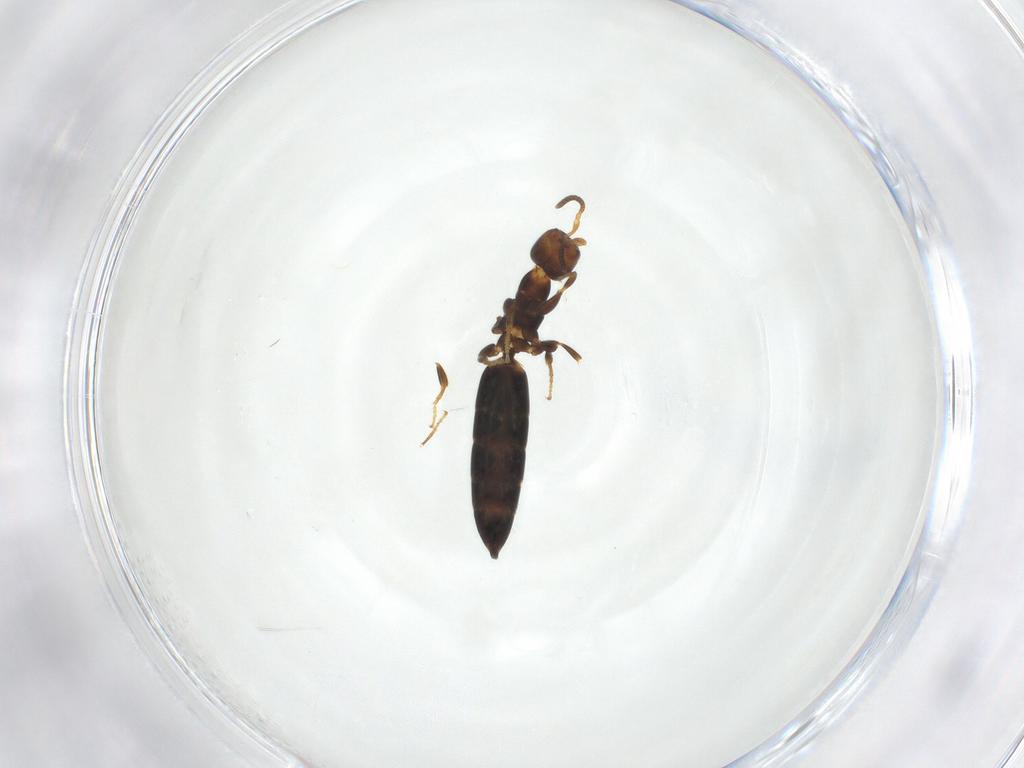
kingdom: Animalia
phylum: Arthropoda
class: Insecta
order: Hymenoptera
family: Bethylidae
